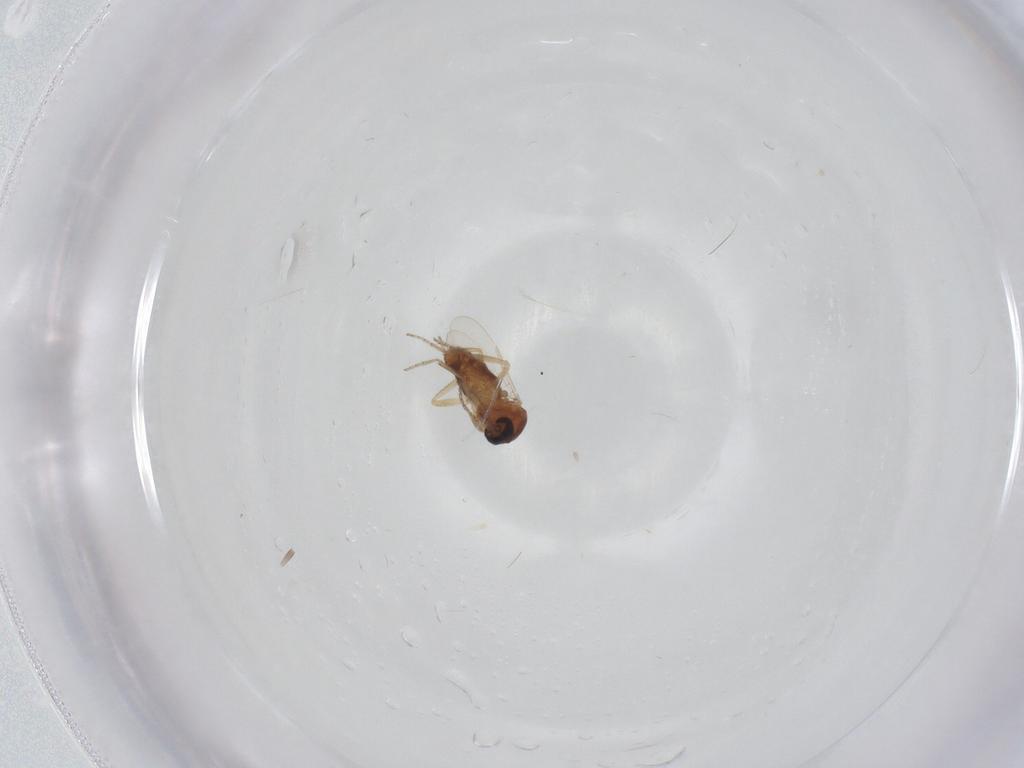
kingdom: Animalia
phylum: Arthropoda
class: Insecta
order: Diptera
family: Chironomidae
